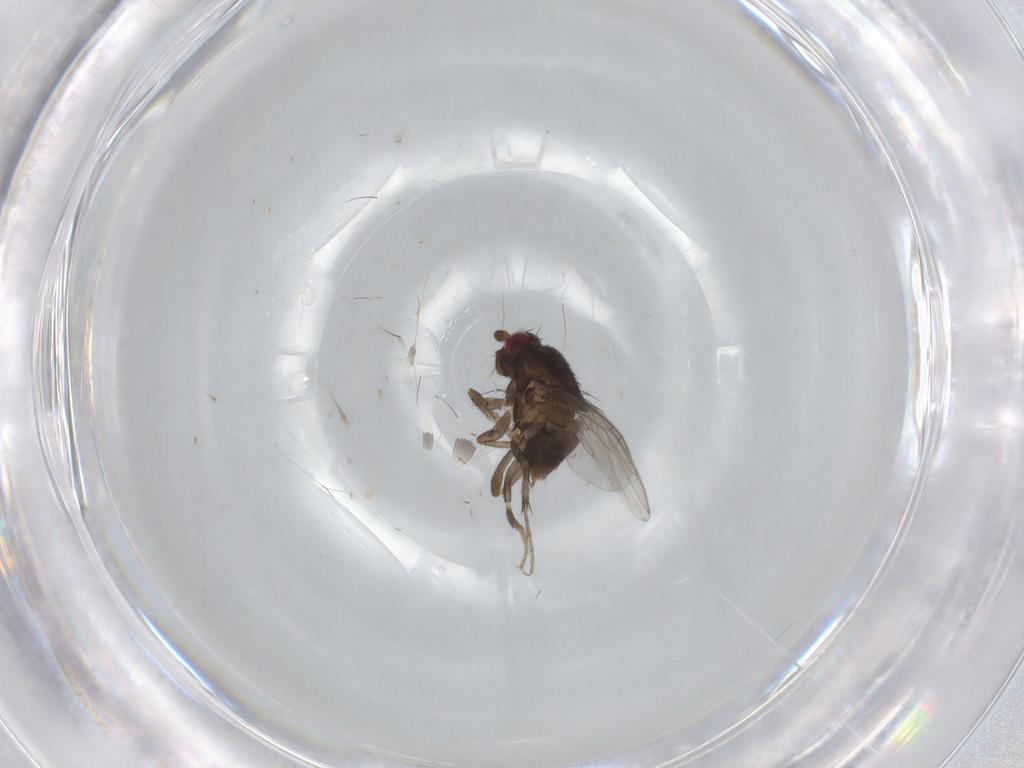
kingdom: Animalia
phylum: Arthropoda
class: Insecta
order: Diptera
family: Sphaeroceridae
